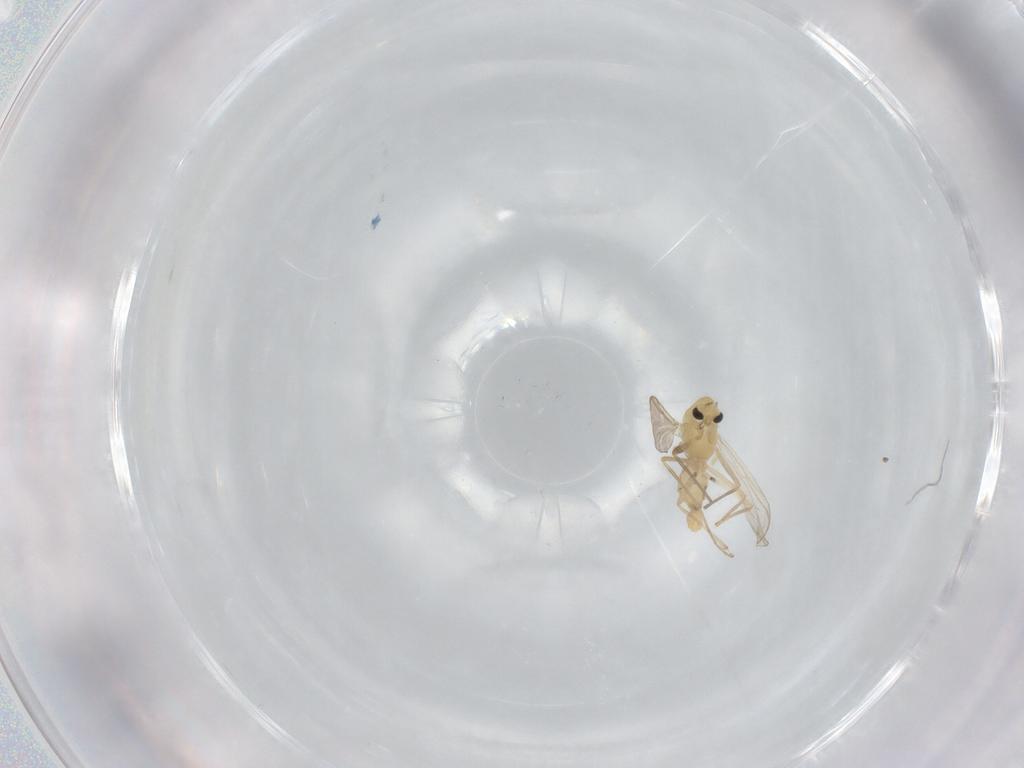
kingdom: Animalia
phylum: Arthropoda
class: Insecta
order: Diptera
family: Chironomidae
